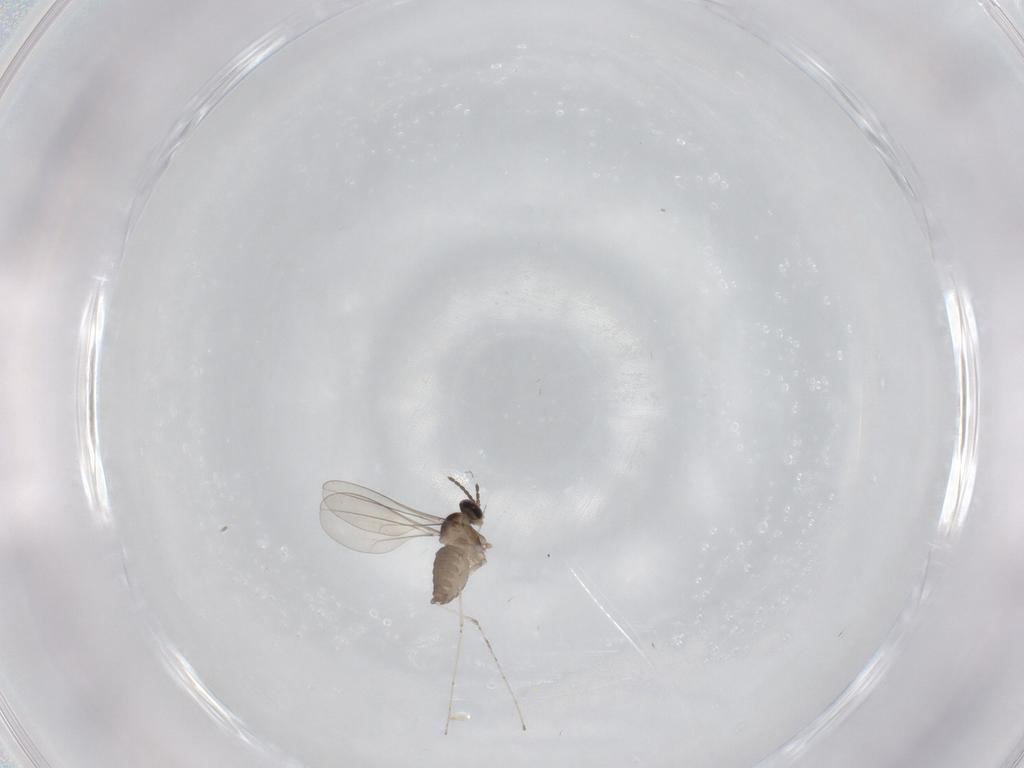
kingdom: Animalia
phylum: Arthropoda
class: Insecta
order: Diptera
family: Cecidomyiidae
